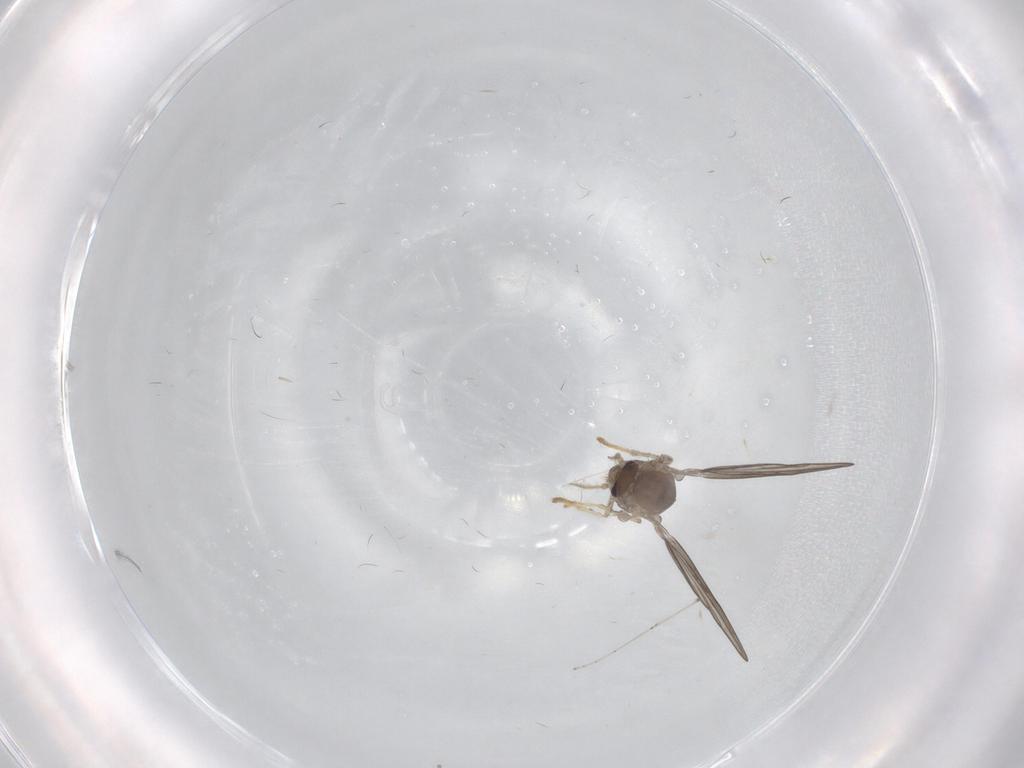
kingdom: Animalia
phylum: Arthropoda
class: Insecta
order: Diptera
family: Psychodidae
